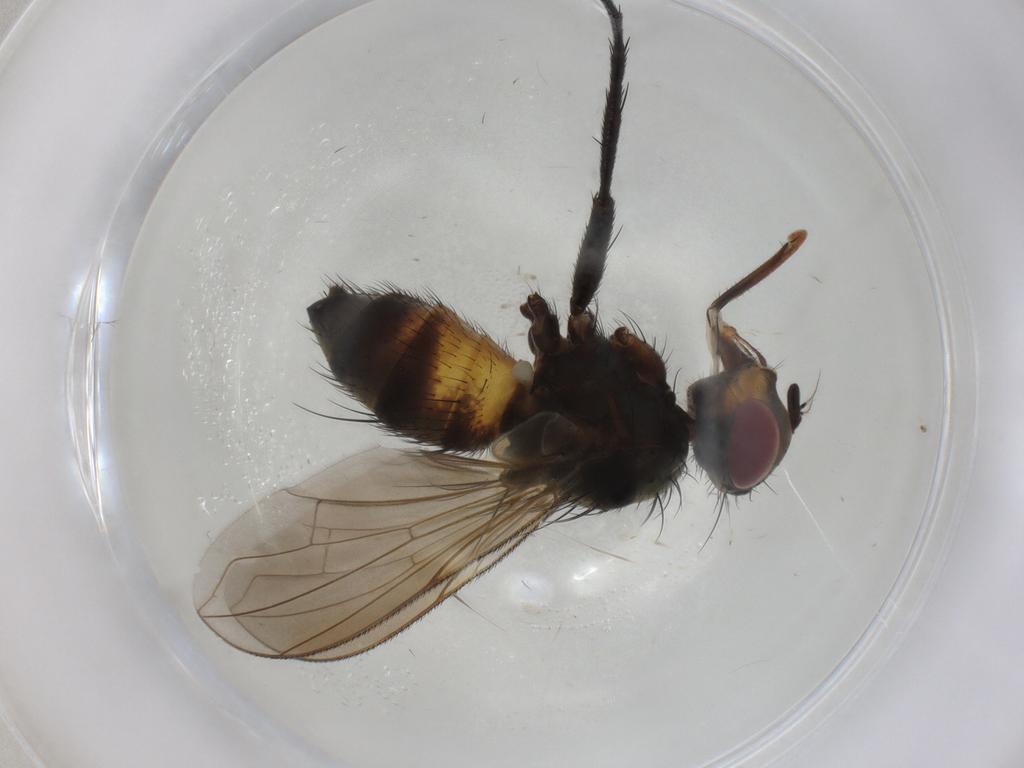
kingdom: Animalia
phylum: Arthropoda
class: Insecta
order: Diptera
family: Tachinidae
